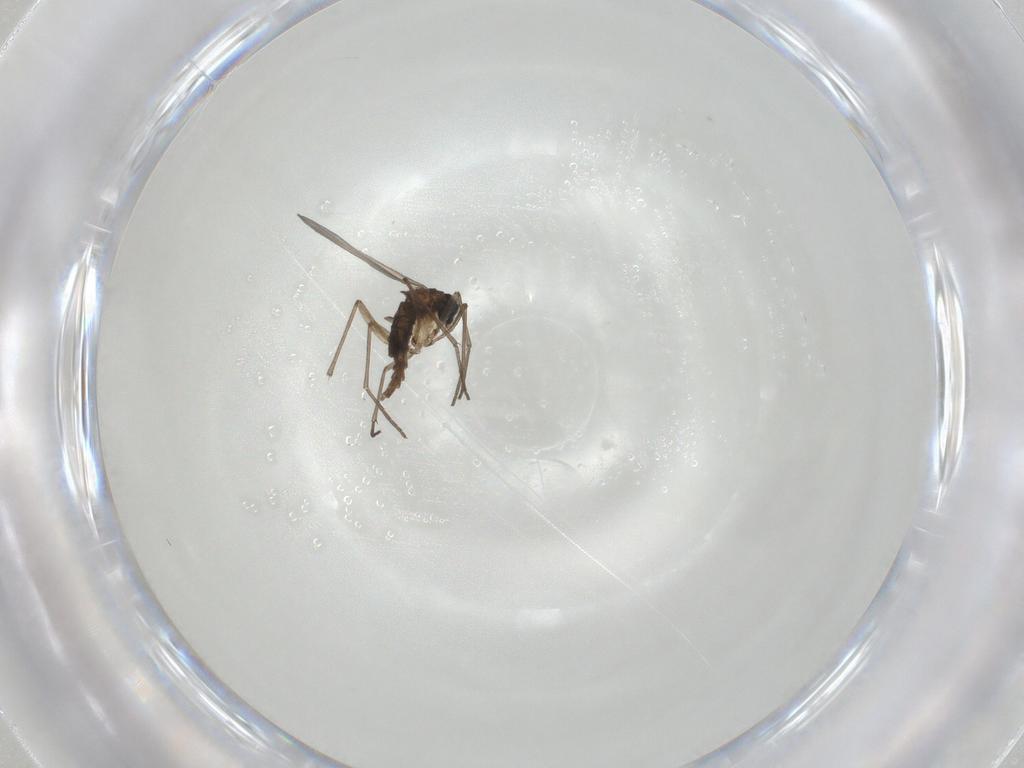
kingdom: Animalia
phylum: Arthropoda
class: Insecta
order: Diptera
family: Sciaridae
